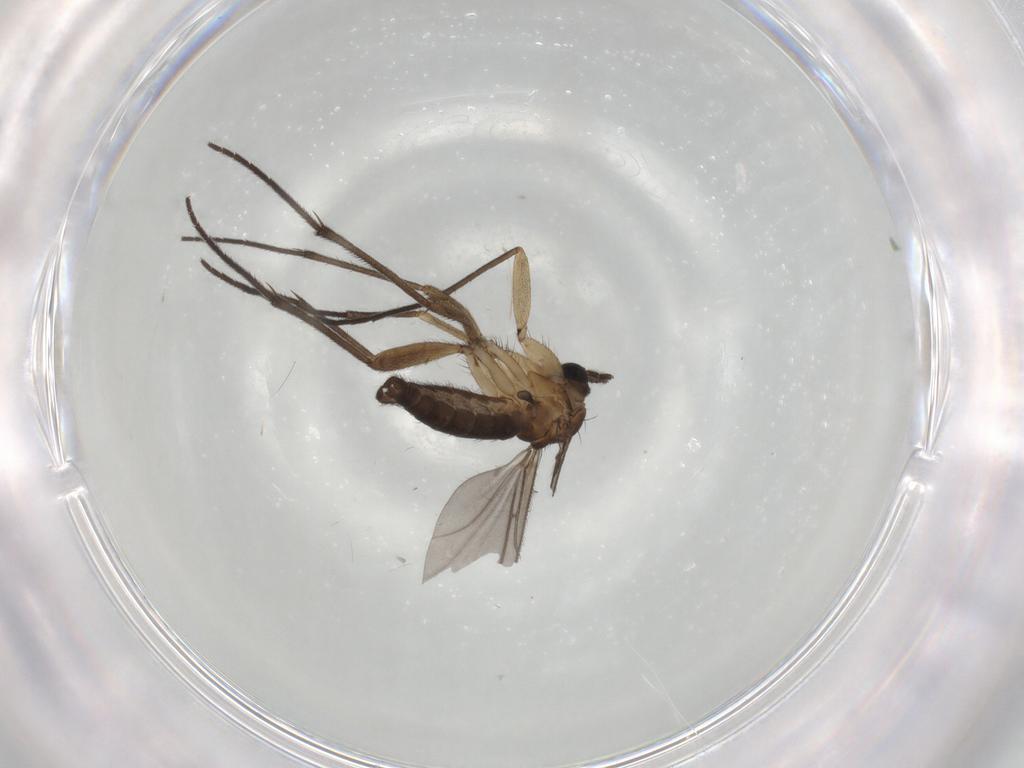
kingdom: Animalia
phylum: Arthropoda
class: Insecta
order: Diptera
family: Sciaridae
